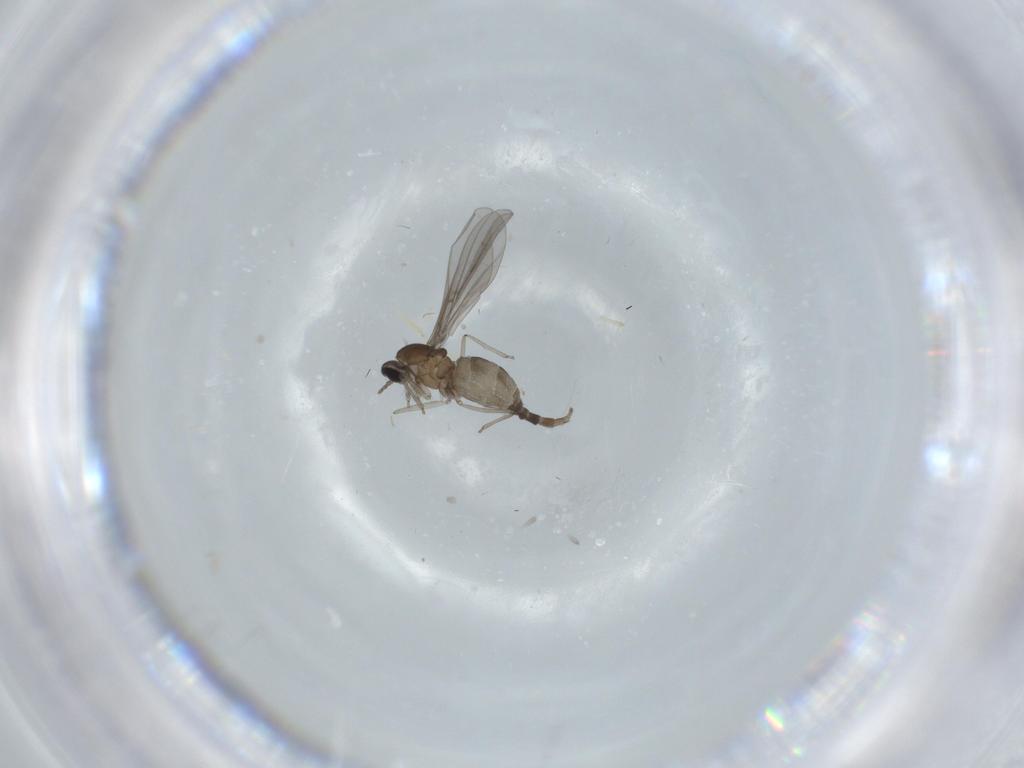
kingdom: Animalia
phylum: Arthropoda
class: Insecta
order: Diptera
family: Cecidomyiidae
